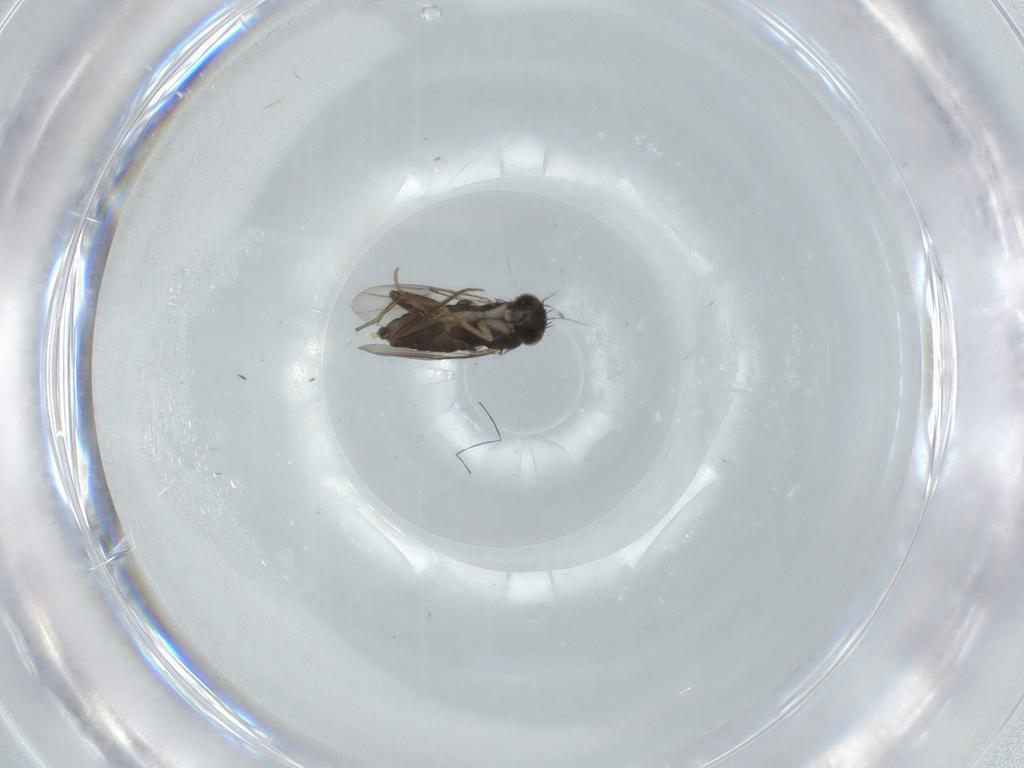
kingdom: Animalia
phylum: Arthropoda
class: Insecta
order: Diptera
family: Phoridae
